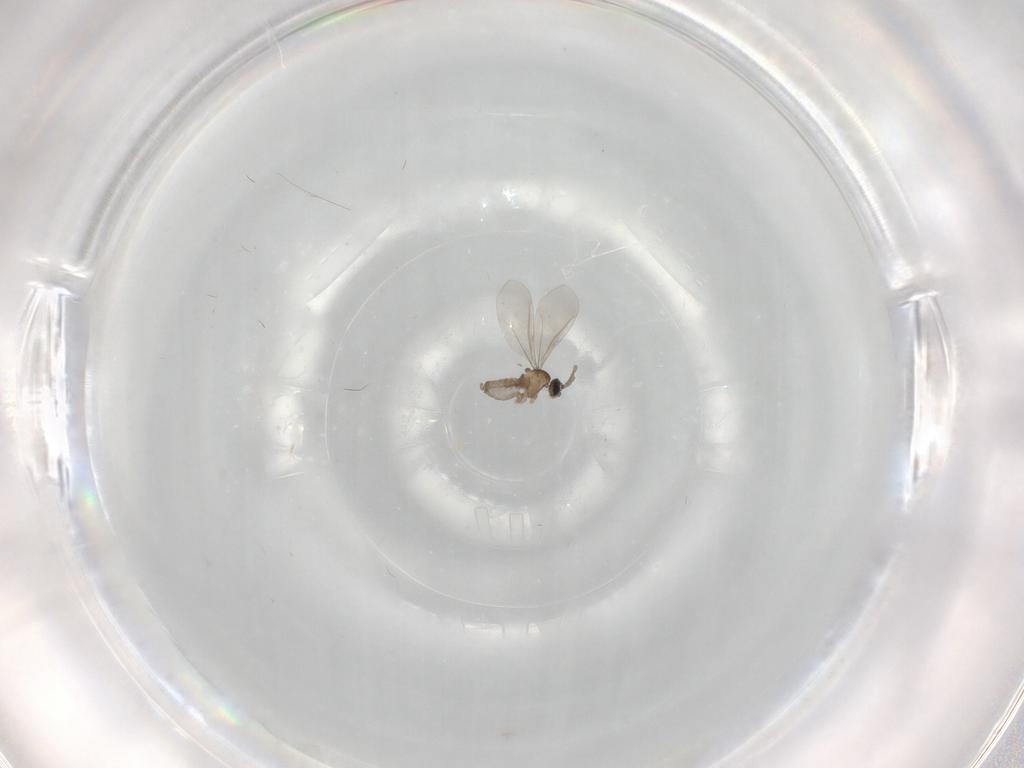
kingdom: Animalia
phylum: Arthropoda
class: Insecta
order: Diptera
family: Cecidomyiidae
